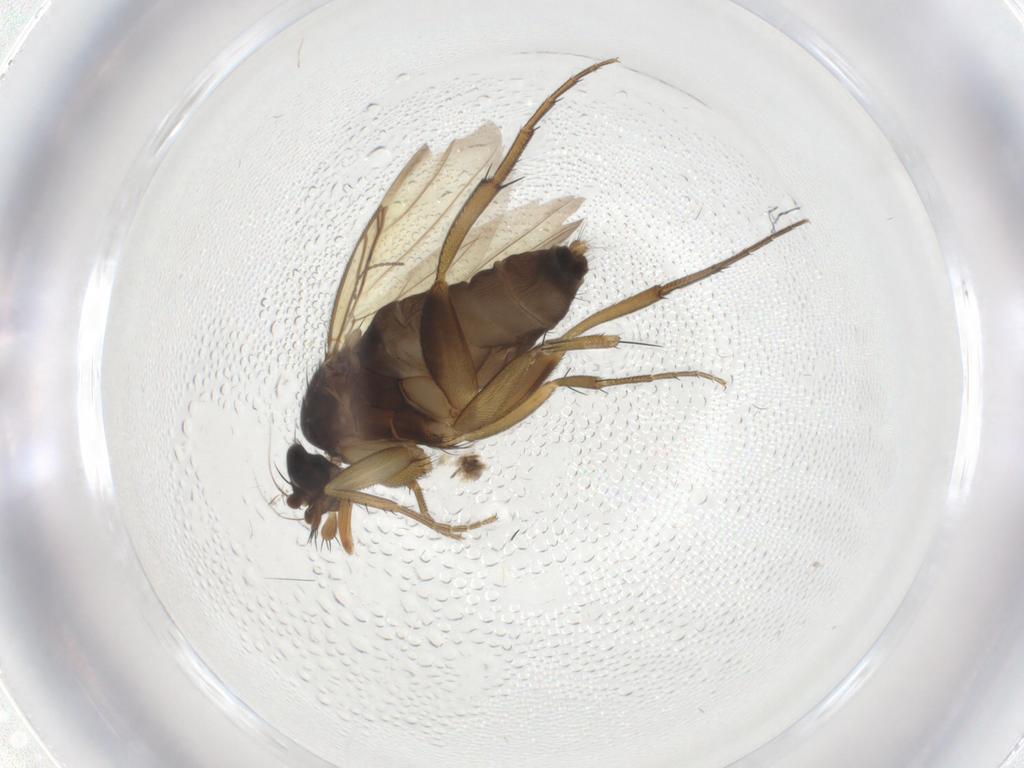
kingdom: Animalia
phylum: Arthropoda
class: Insecta
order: Diptera
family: Phoridae
